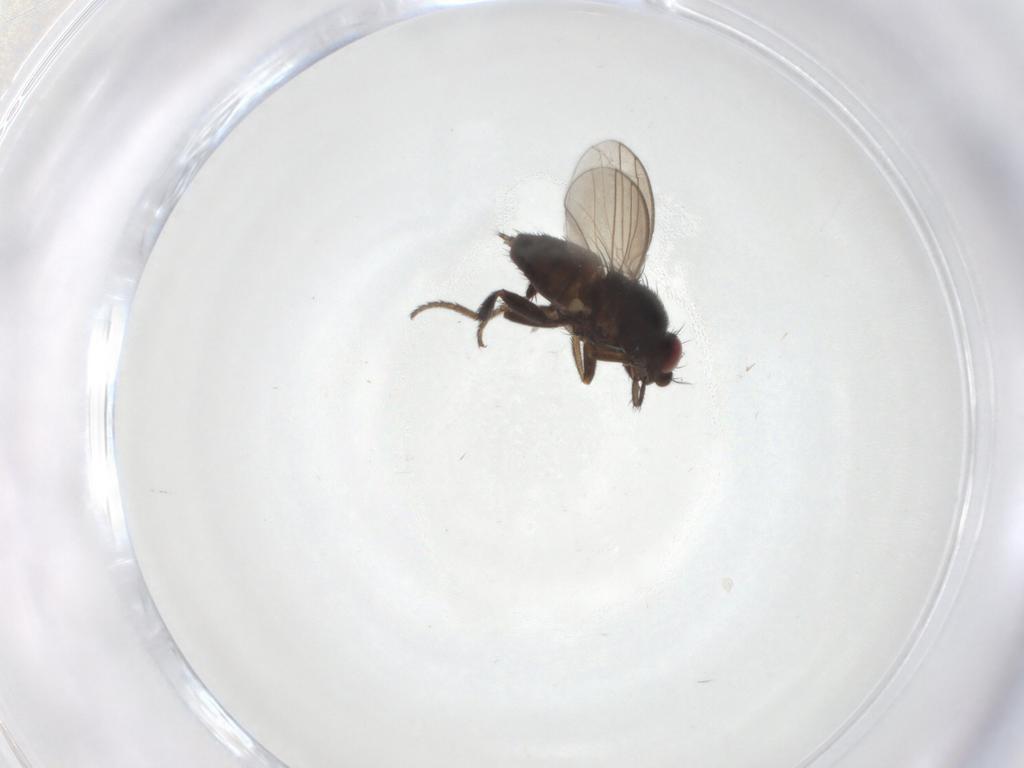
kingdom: Animalia
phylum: Arthropoda
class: Insecta
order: Diptera
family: Milichiidae
